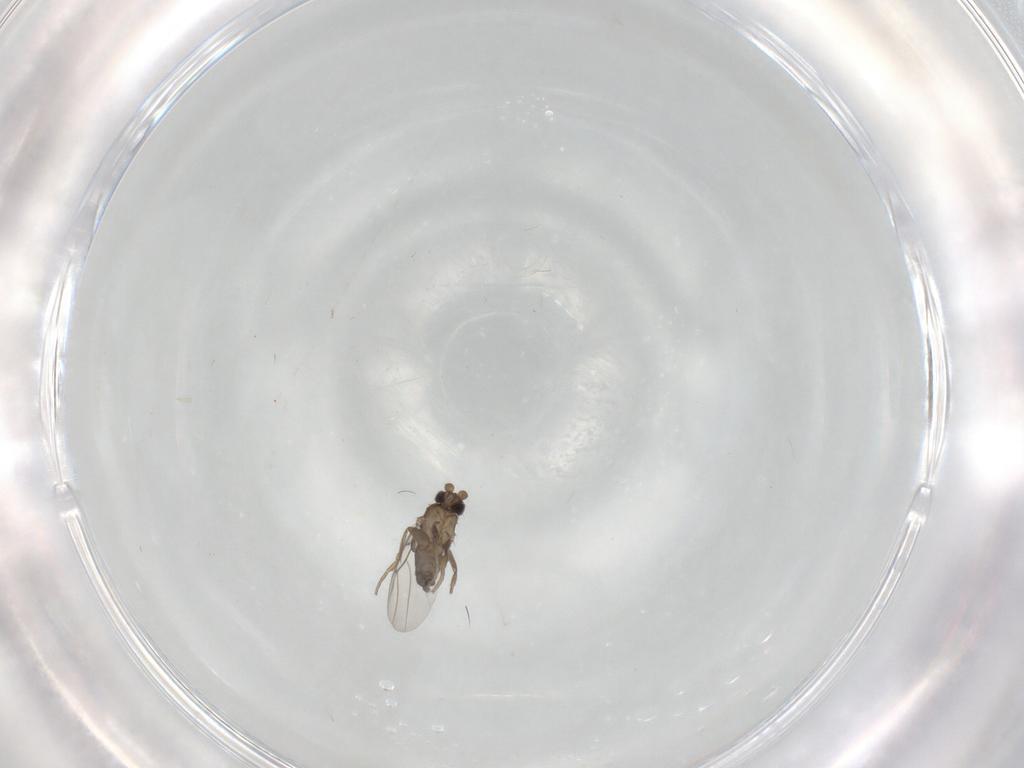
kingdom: Animalia
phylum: Arthropoda
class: Insecta
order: Diptera
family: Phoridae
